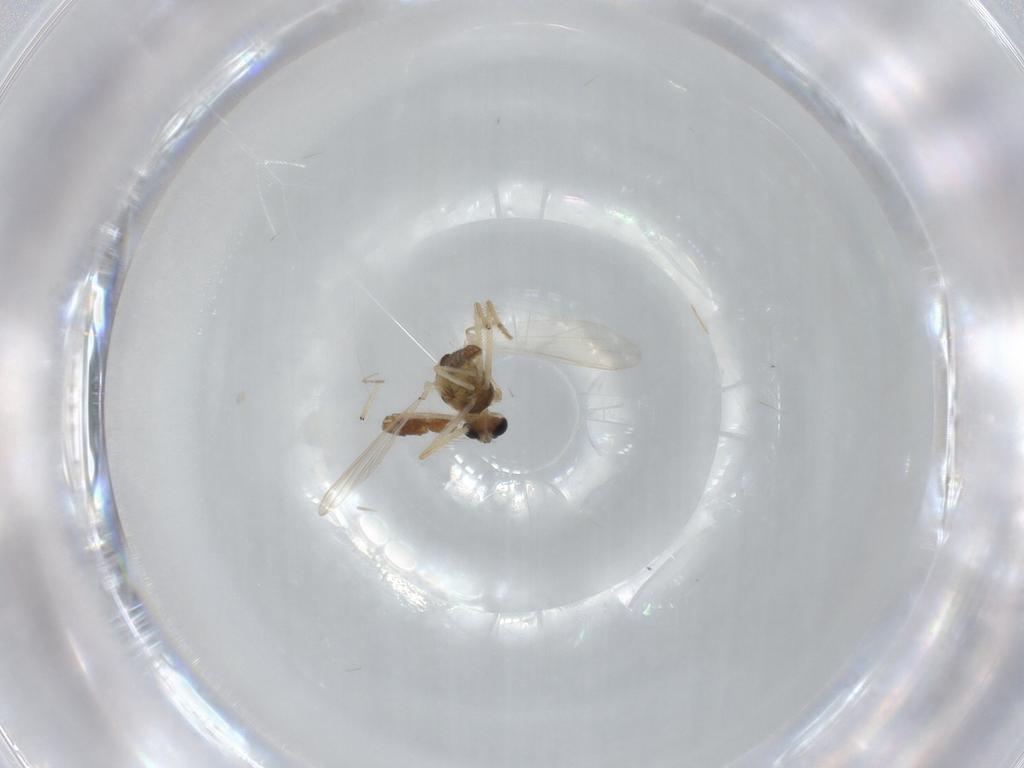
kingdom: Animalia
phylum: Arthropoda
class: Insecta
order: Diptera
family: Chironomidae
